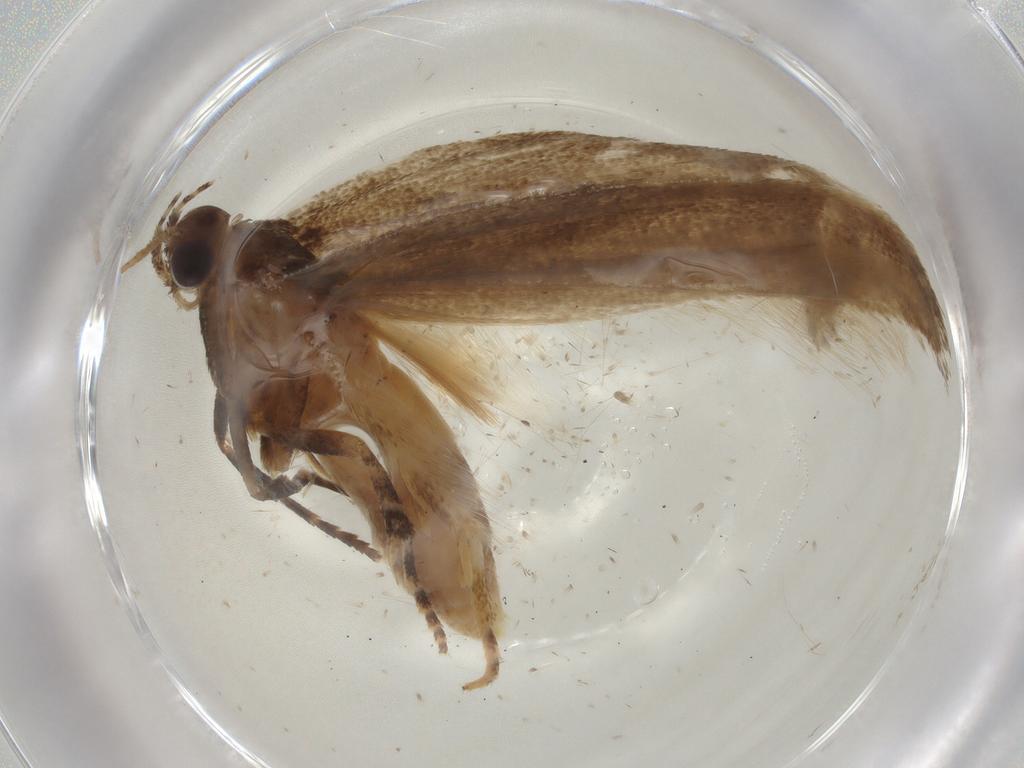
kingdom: Animalia
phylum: Arthropoda
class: Insecta
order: Lepidoptera
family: Gelechiidae
